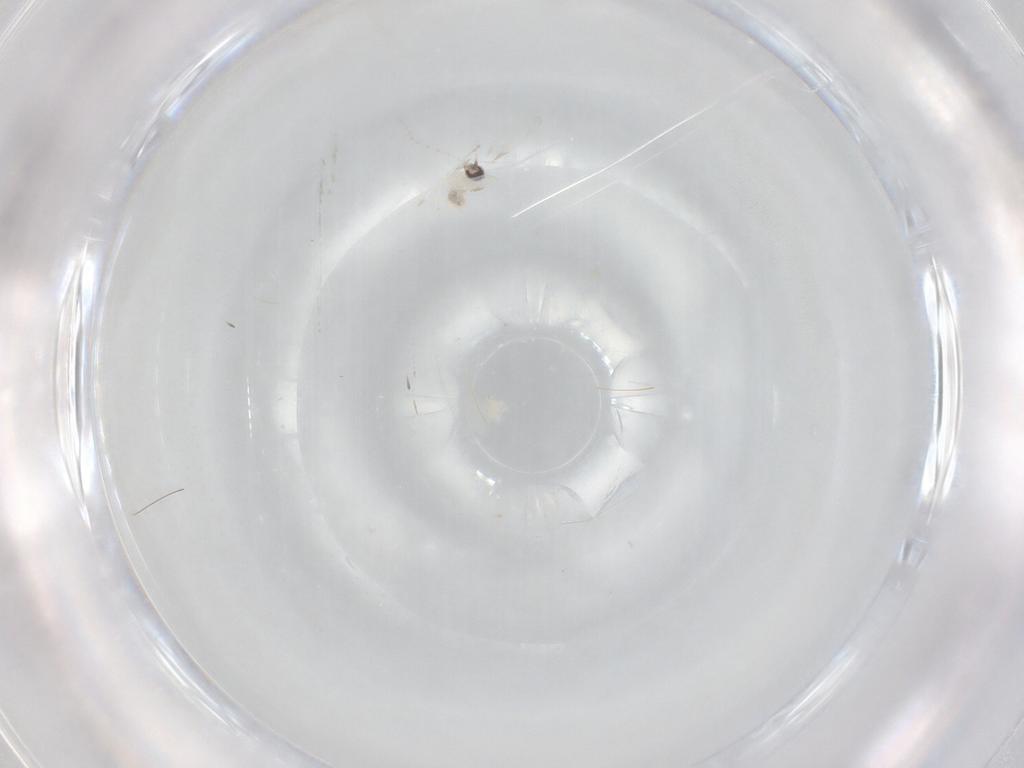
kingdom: Animalia
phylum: Arthropoda
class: Insecta
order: Diptera
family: Cecidomyiidae
